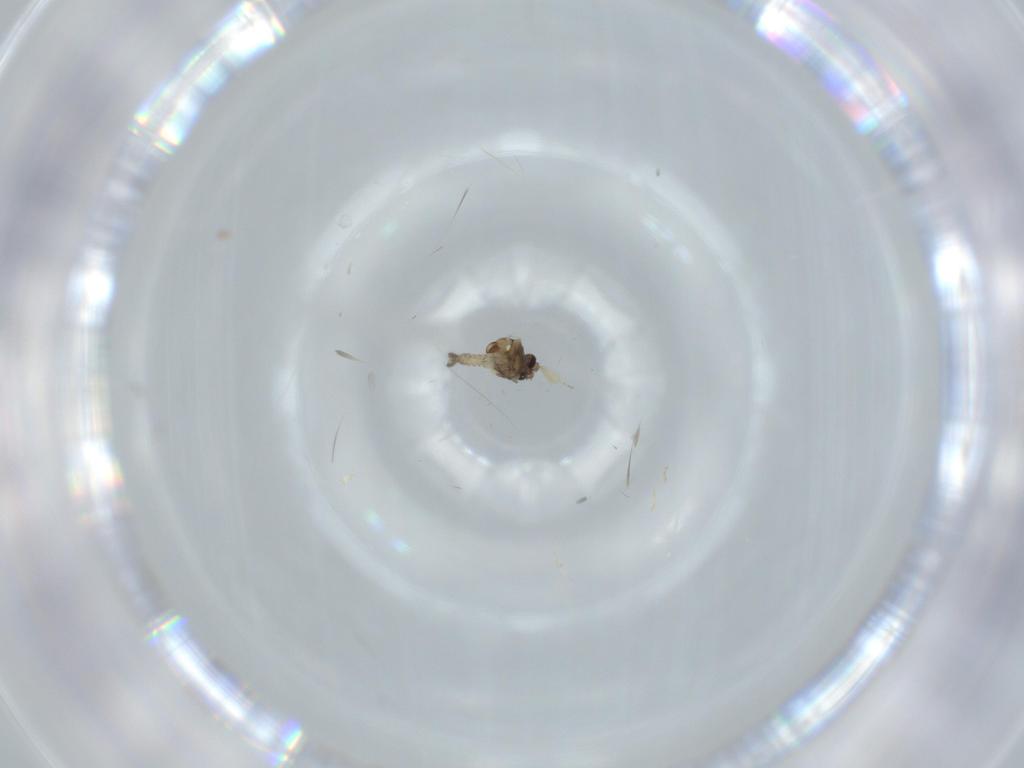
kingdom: Animalia
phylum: Arthropoda
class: Insecta
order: Diptera
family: Ceratopogonidae
